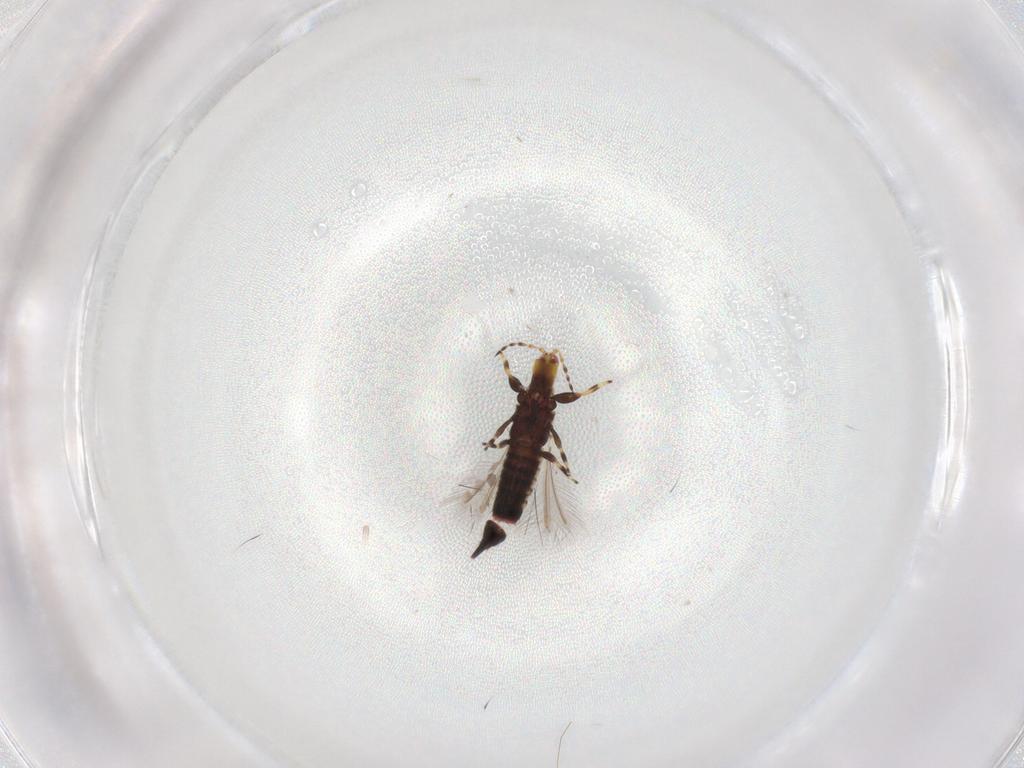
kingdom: Animalia
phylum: Arthropoda
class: Insecta
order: Thysanoptera
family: Phlaeothripidae
